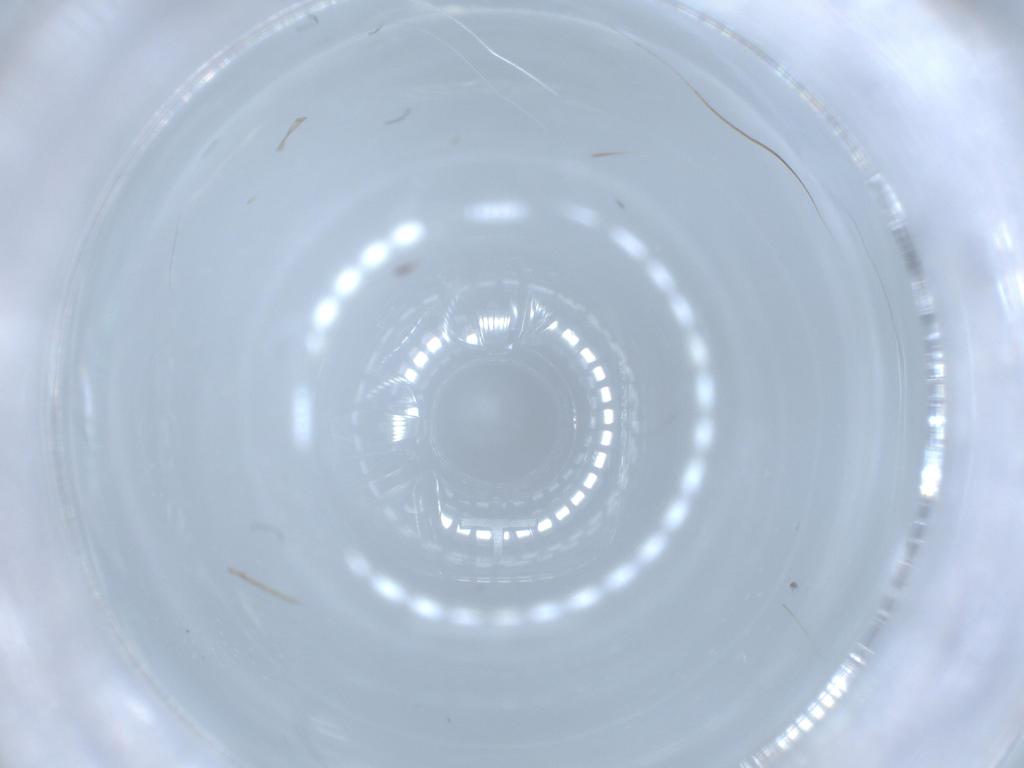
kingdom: Animalia
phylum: Arthropoda
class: Insecta
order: Diptera
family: Agromyzidae
